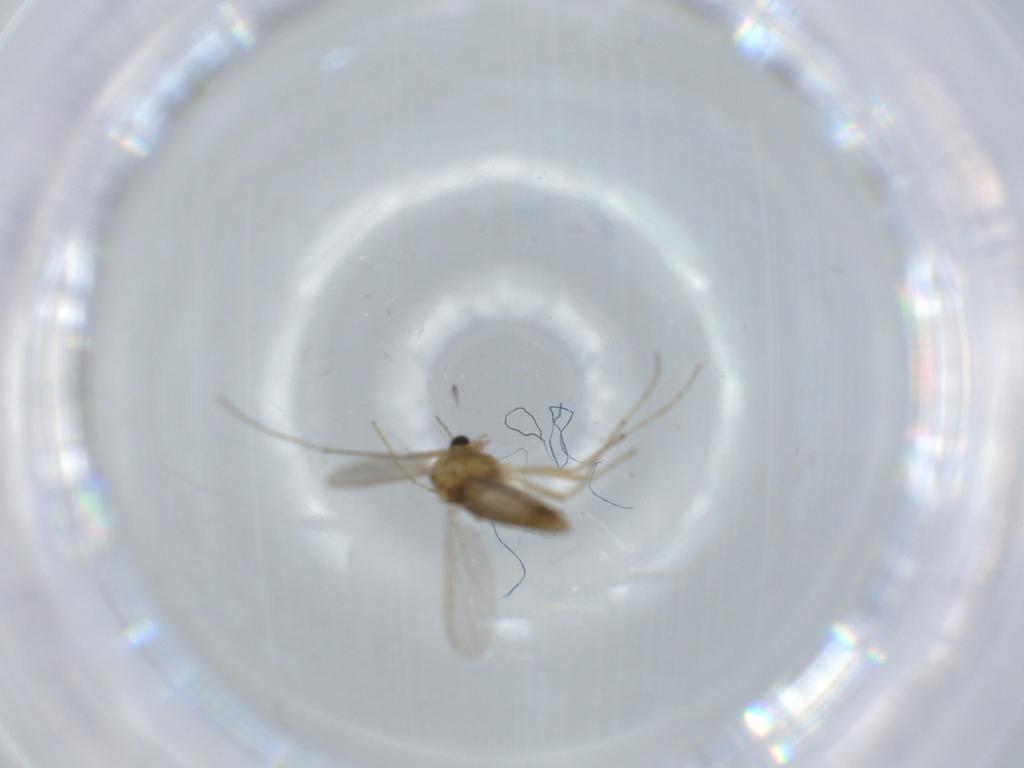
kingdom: Animalia
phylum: Arthropoda
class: Insecta
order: Diptera
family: Chironomidae
